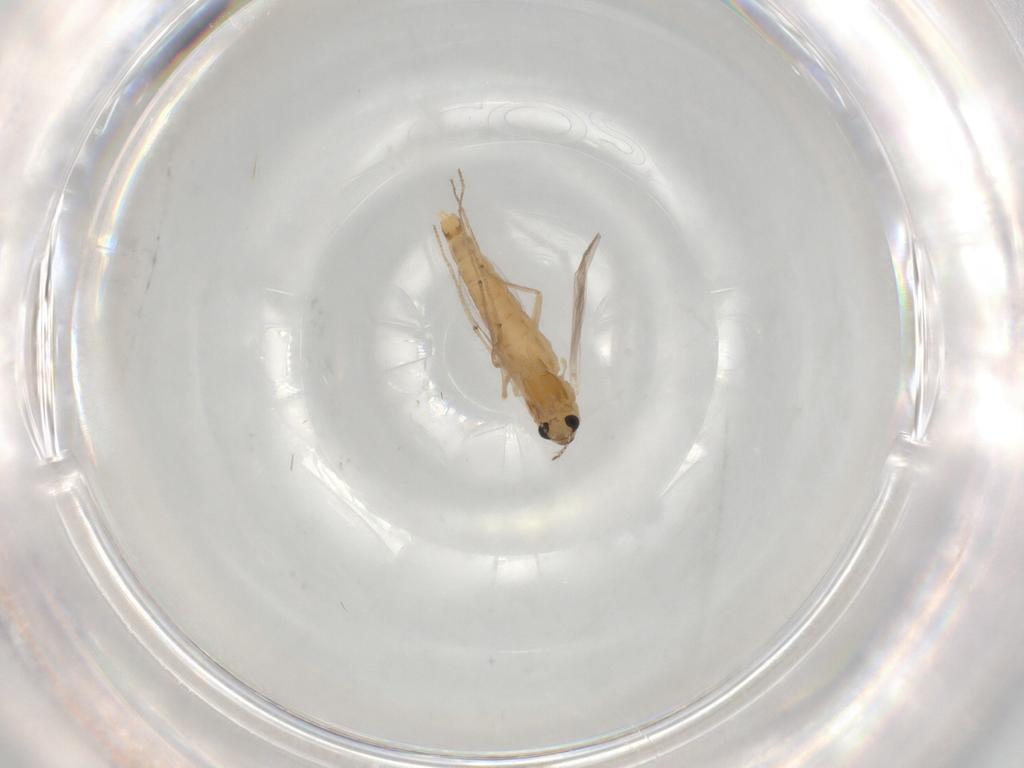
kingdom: Animalia
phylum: Arthropoda
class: Insecta
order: Diptera
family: Chironomidae
